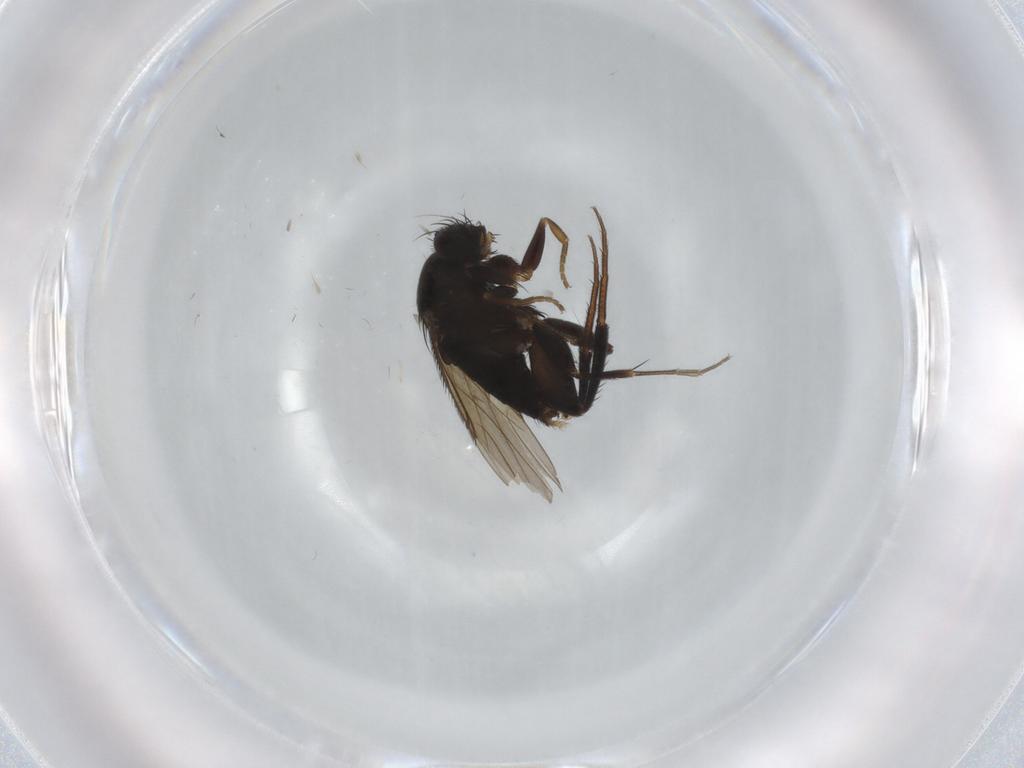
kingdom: Animalia
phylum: Arthropoda
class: Insecta
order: Diptera
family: Phoridae
